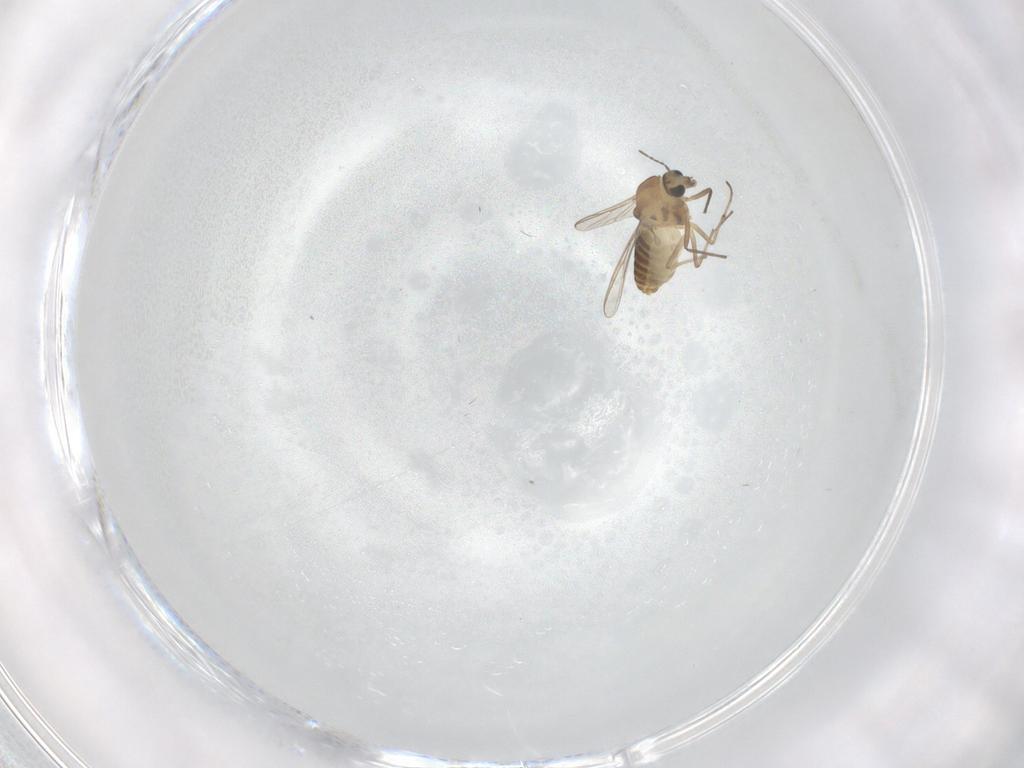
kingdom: Animalia
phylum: Arthropoda
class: Insecta
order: Diptera
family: Chironomidae
